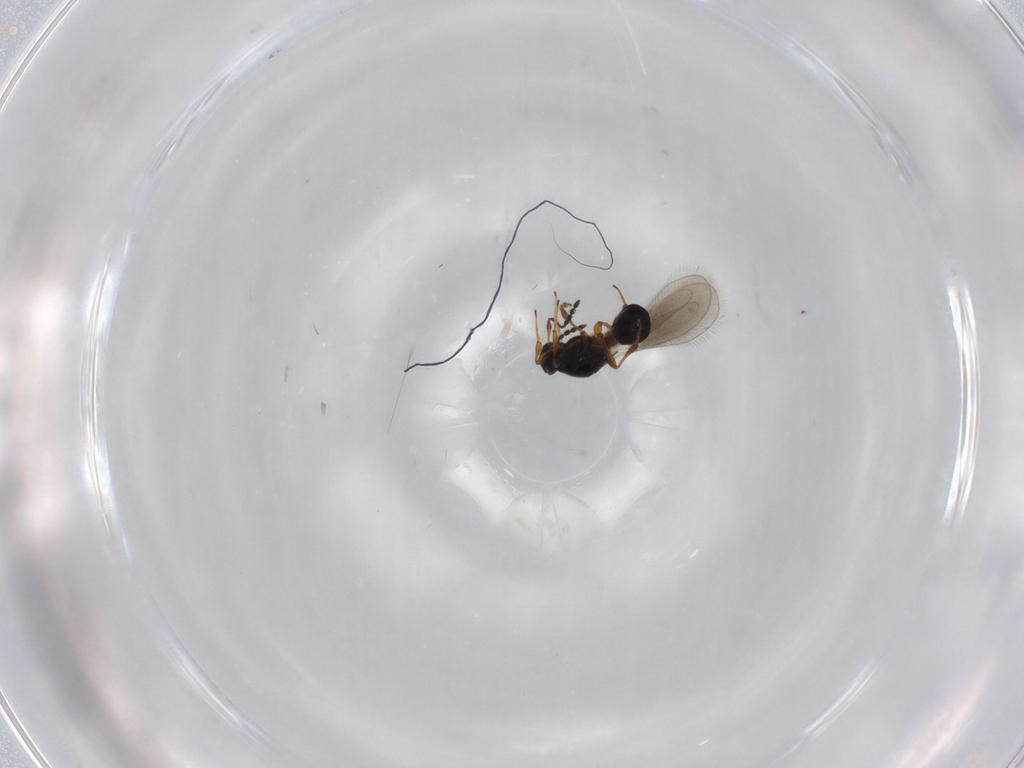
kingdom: Animalia
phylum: Arthropoda
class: Insecta
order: Hymenoptera
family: Platygastridae
